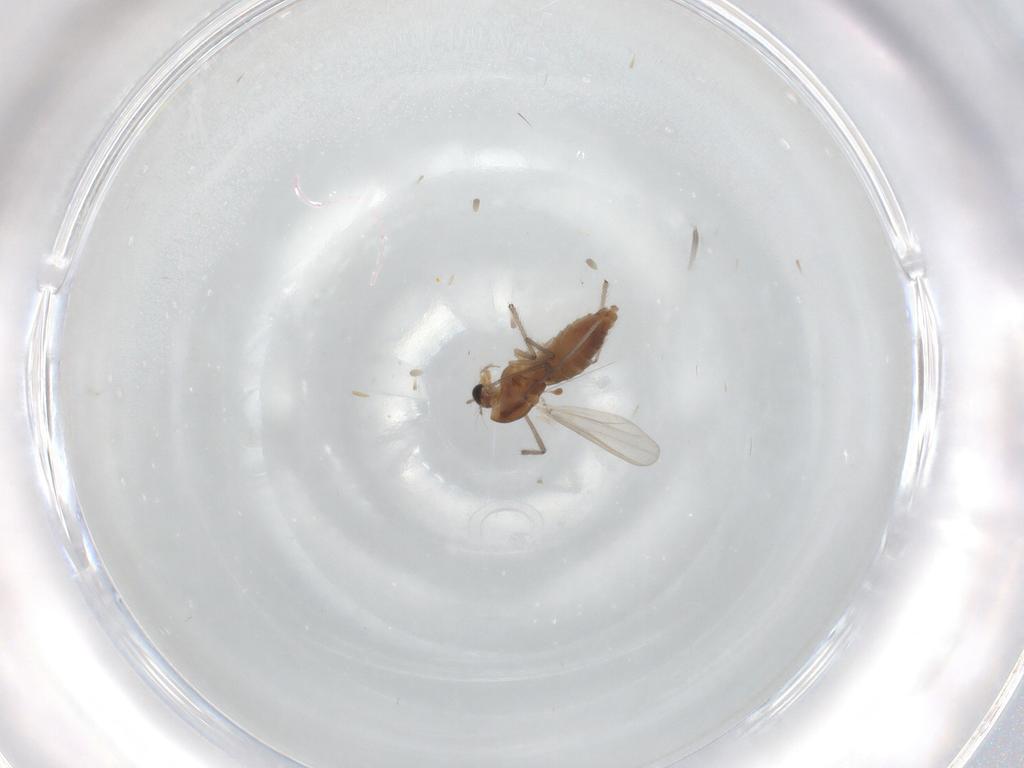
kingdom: Animalia
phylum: Arthropoda
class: Insecta
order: Diptera
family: Chironomidae
